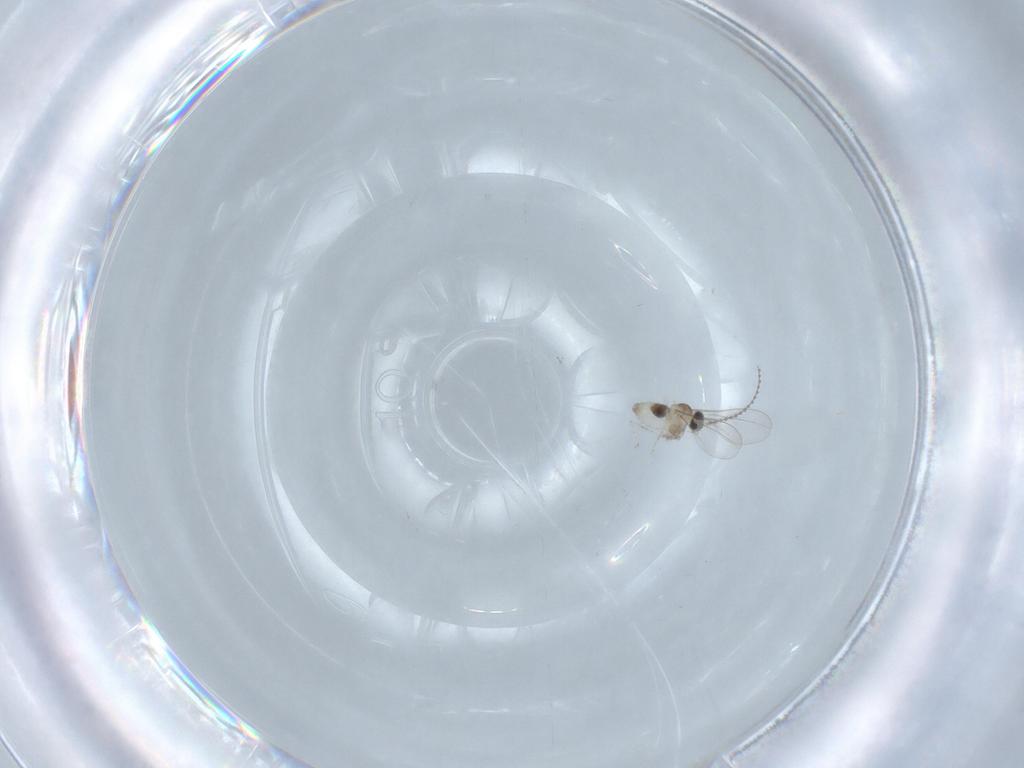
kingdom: Animalia
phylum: Arthropoda
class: Insecta
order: Diptera
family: Cecidomyiidae
